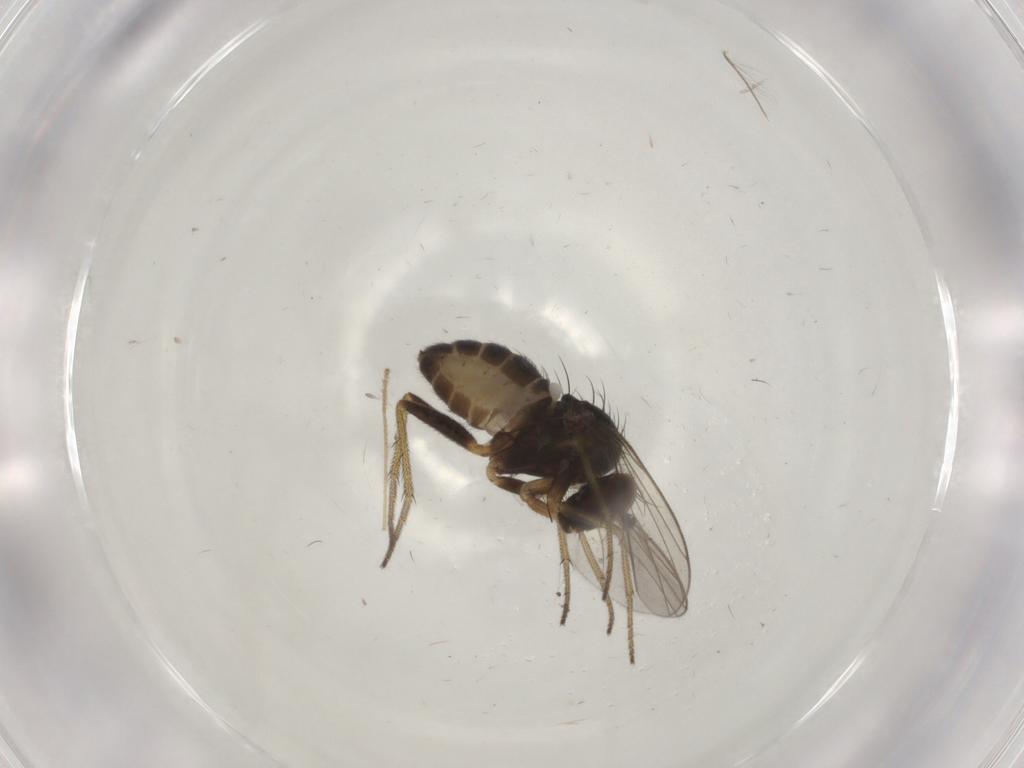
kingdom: Animalia
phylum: Arthropoda
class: Insecta
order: Diptera
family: Dolichopodidae
